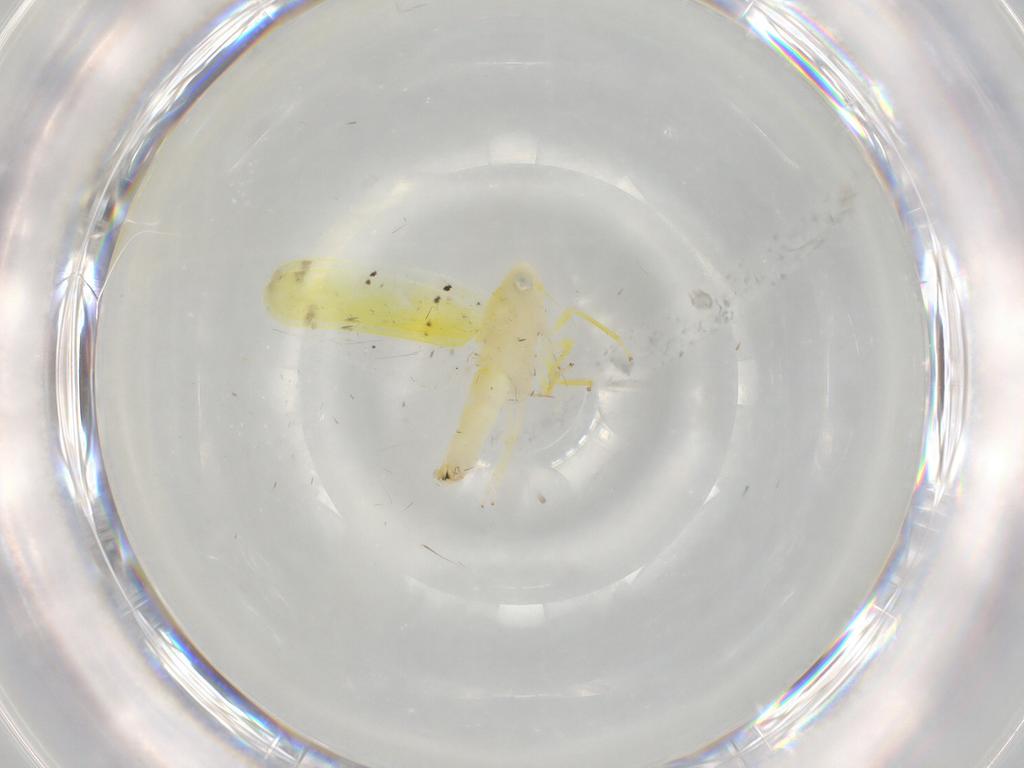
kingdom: Animalia
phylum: Arthropoda
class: Insecta
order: Hemiptera
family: Cicadellidae
